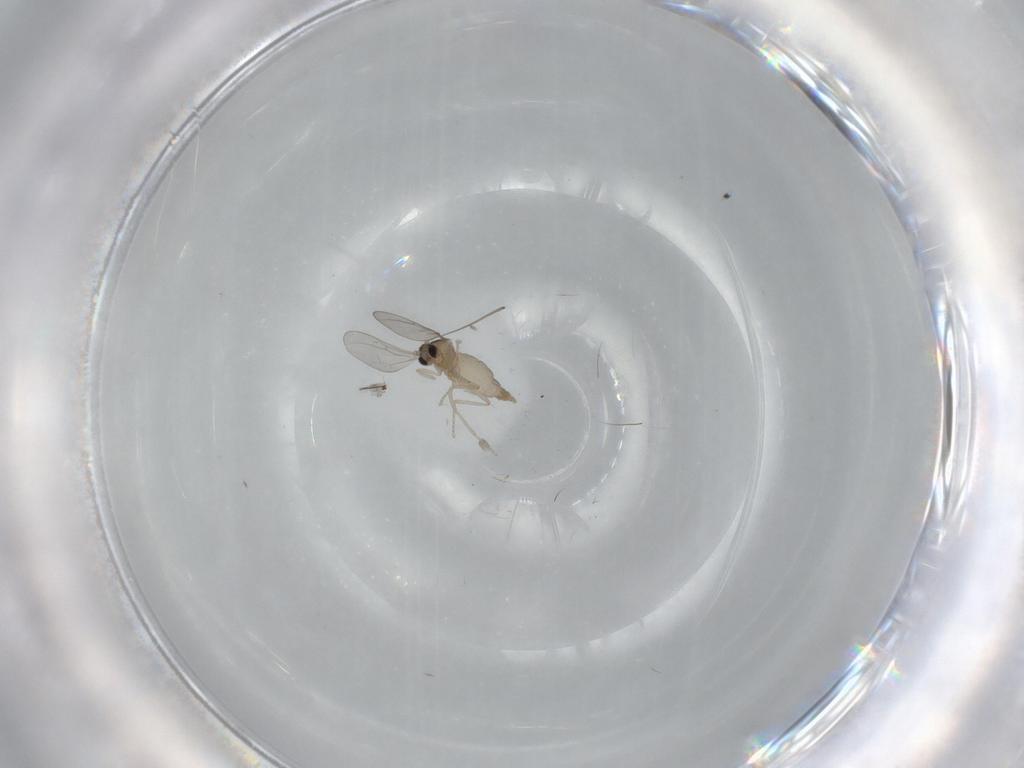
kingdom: Animalia
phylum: Arthropoda
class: Insecta
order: Diptera
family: Cecidomyiidae
